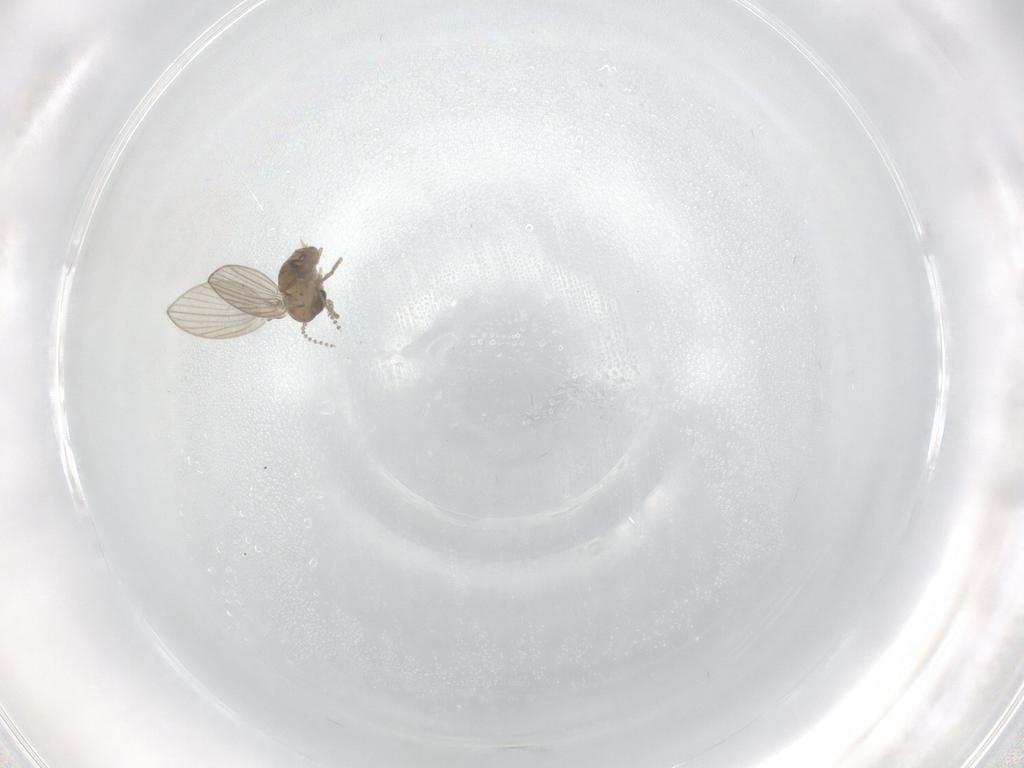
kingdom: Animalia
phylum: Arthropoda
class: Insecta
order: Diptera
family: Psychodidae
